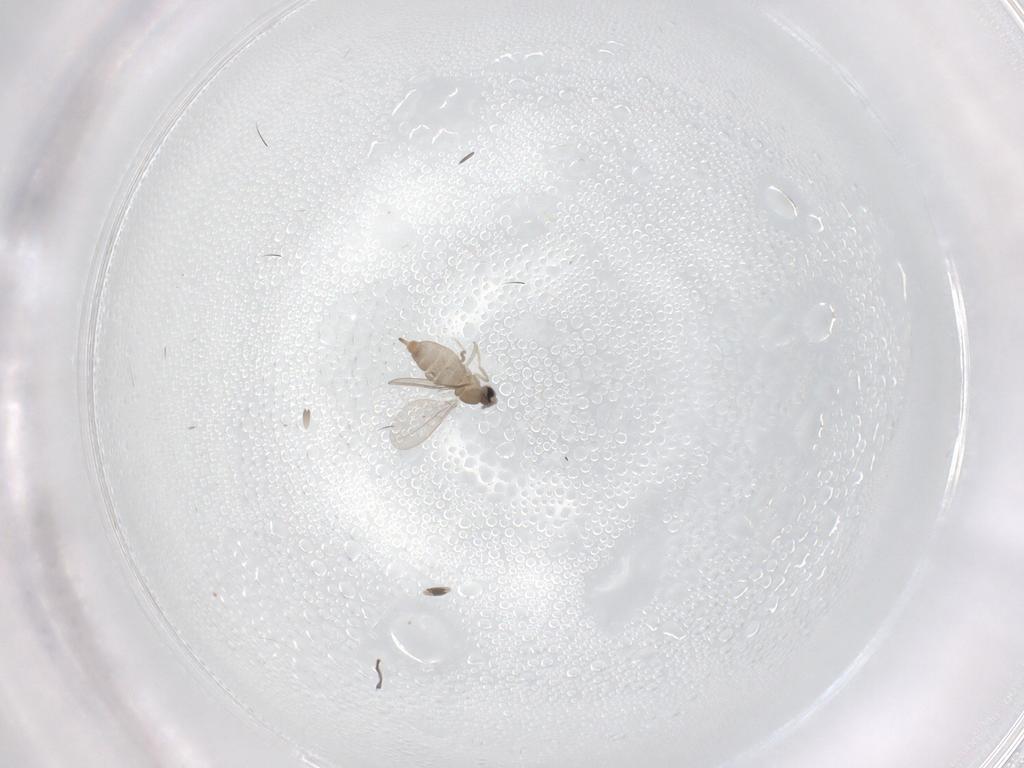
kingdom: Animalia
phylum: Arthropoda
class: Insecta
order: Diptera
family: Cecidomyiidae
